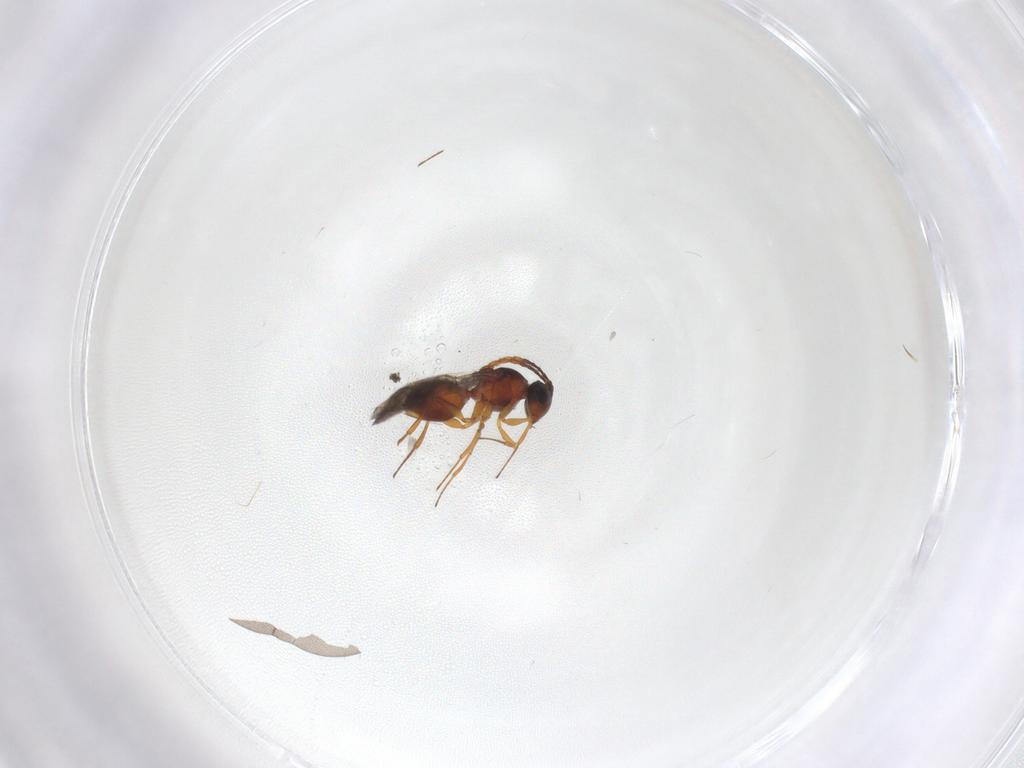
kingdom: Animalia
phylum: Arthropoda
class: Insecta
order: Hymenoptera
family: Figitidae
